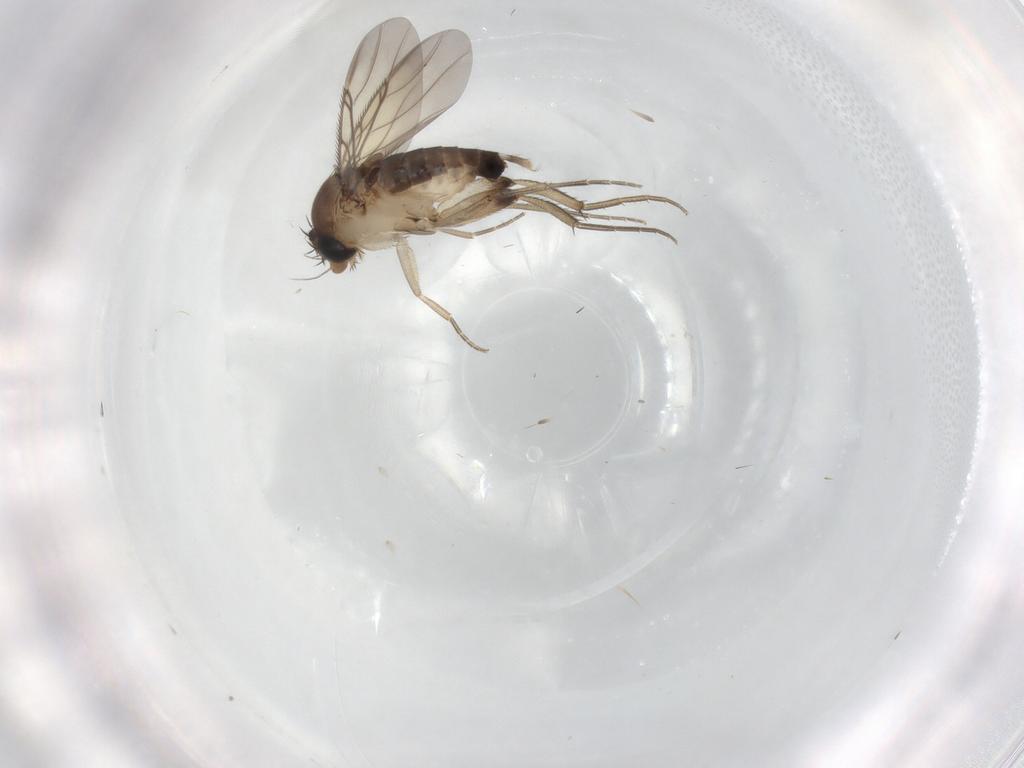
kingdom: Animalia
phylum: Arthropoda
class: Insecta
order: Diptera
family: Phoridae
